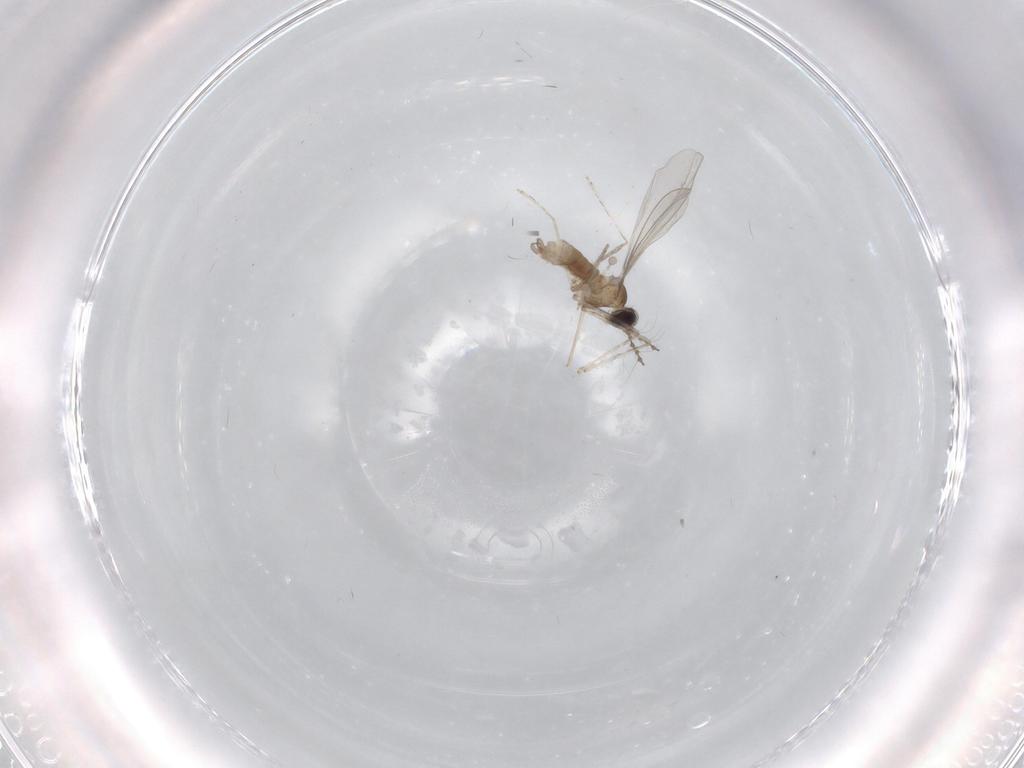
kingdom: Animalia
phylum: Arthropoda
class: Insecta
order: Diptera
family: Cecidomyiidae
